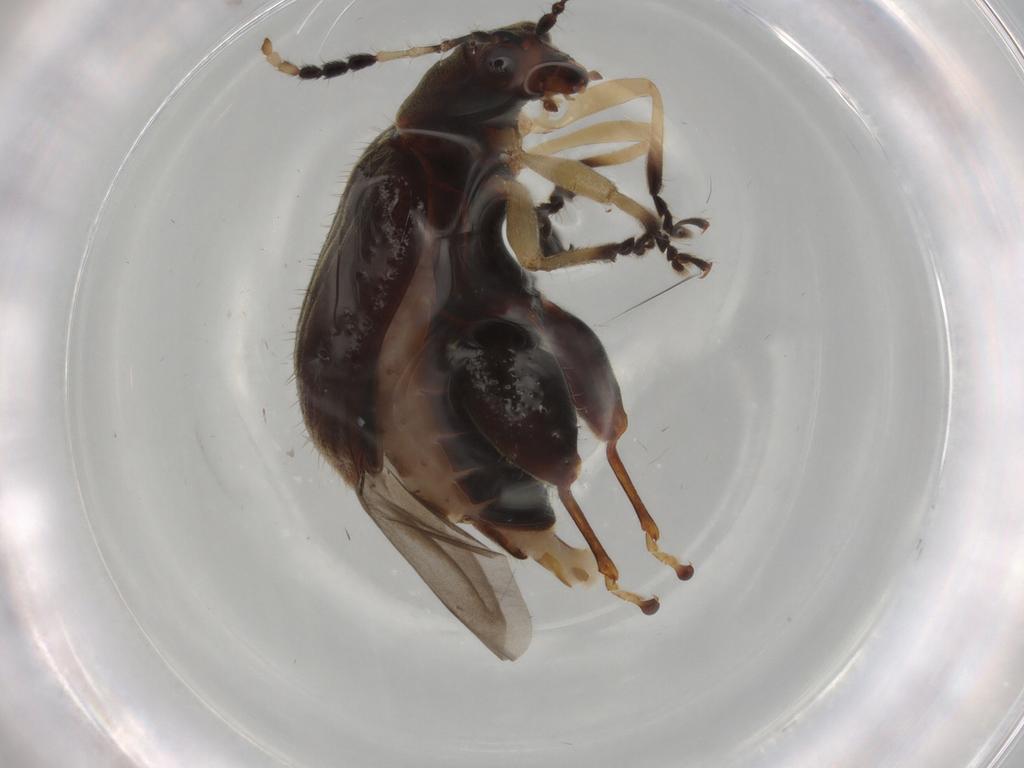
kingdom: Animalia
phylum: Arthropoda
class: Insecta
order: Coleoptera
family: Chrysomelidae
